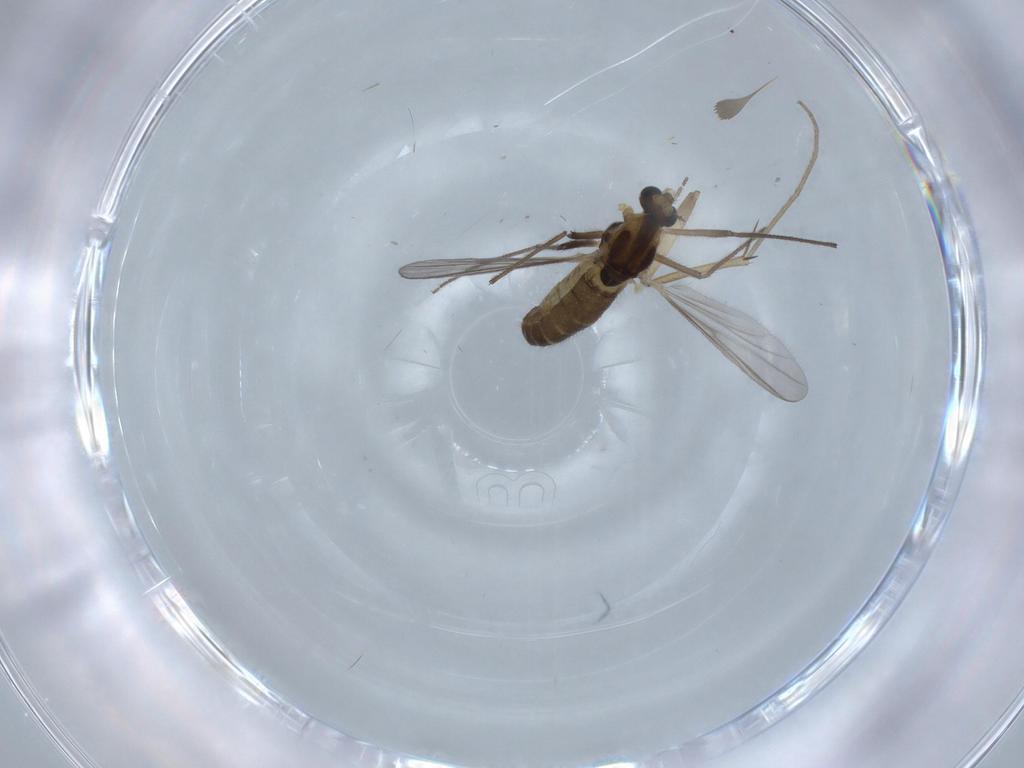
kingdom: Animalia
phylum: Arthropoda
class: Insecta
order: Diptera
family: Chironomidae
